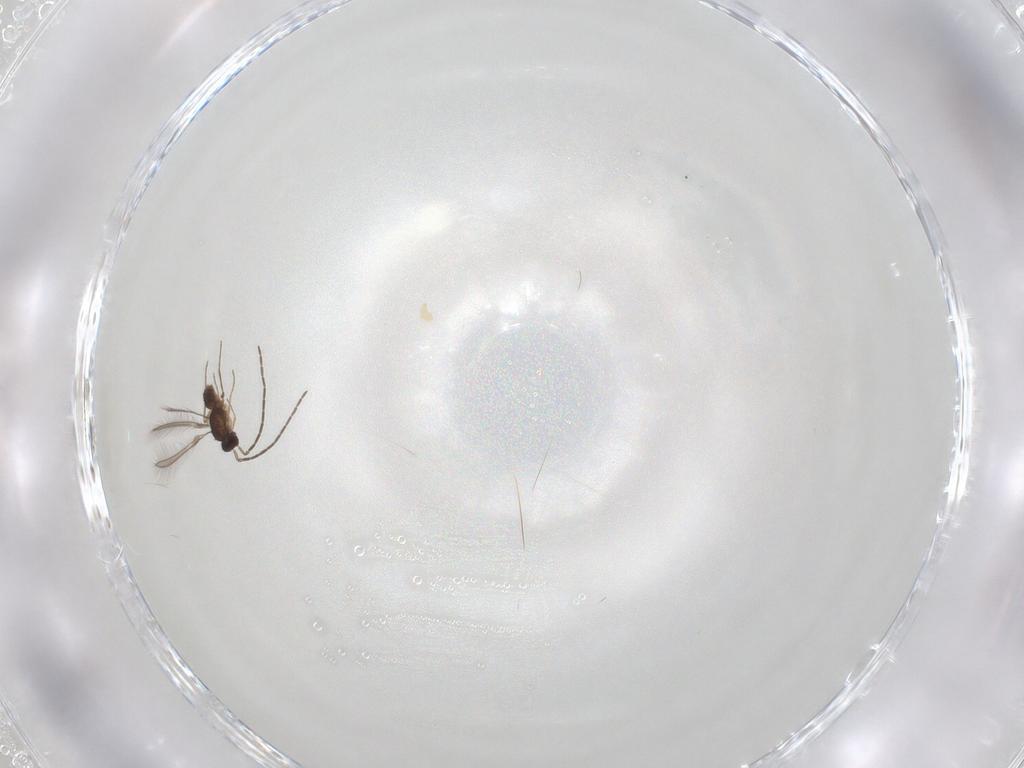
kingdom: Animalia
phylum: Arthropoda
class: Insecta
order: Hymenoptera
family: Mymaridae
